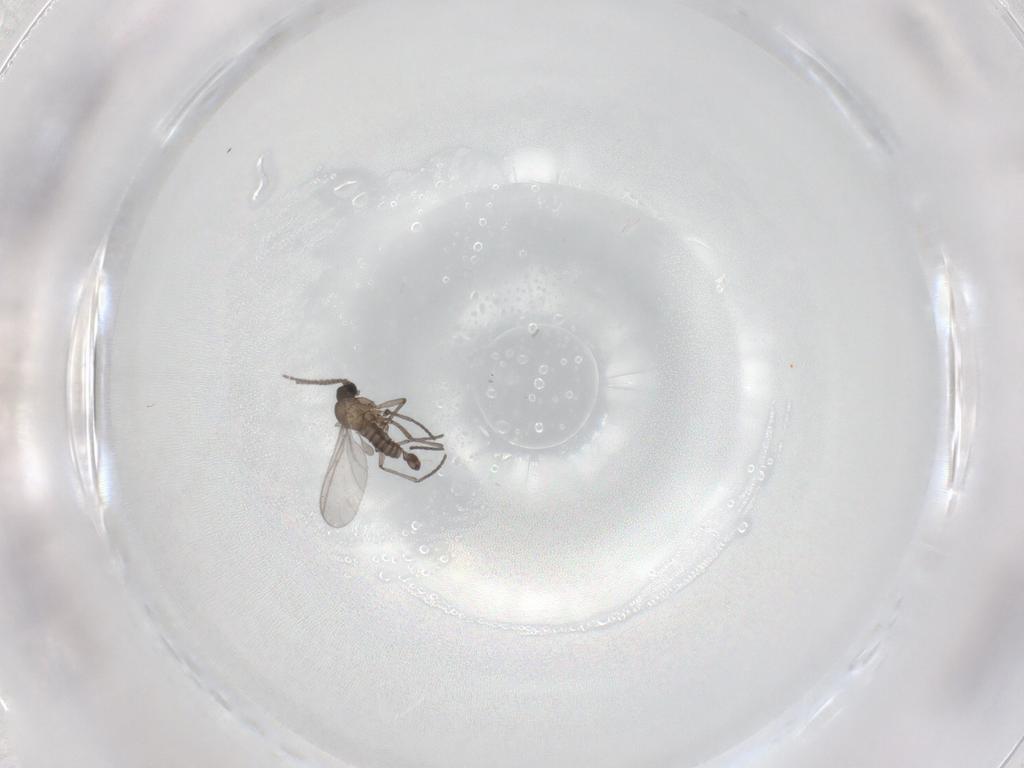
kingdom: Animalia
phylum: Arthropoda
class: Insecta
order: Diptera
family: Sciaridae
